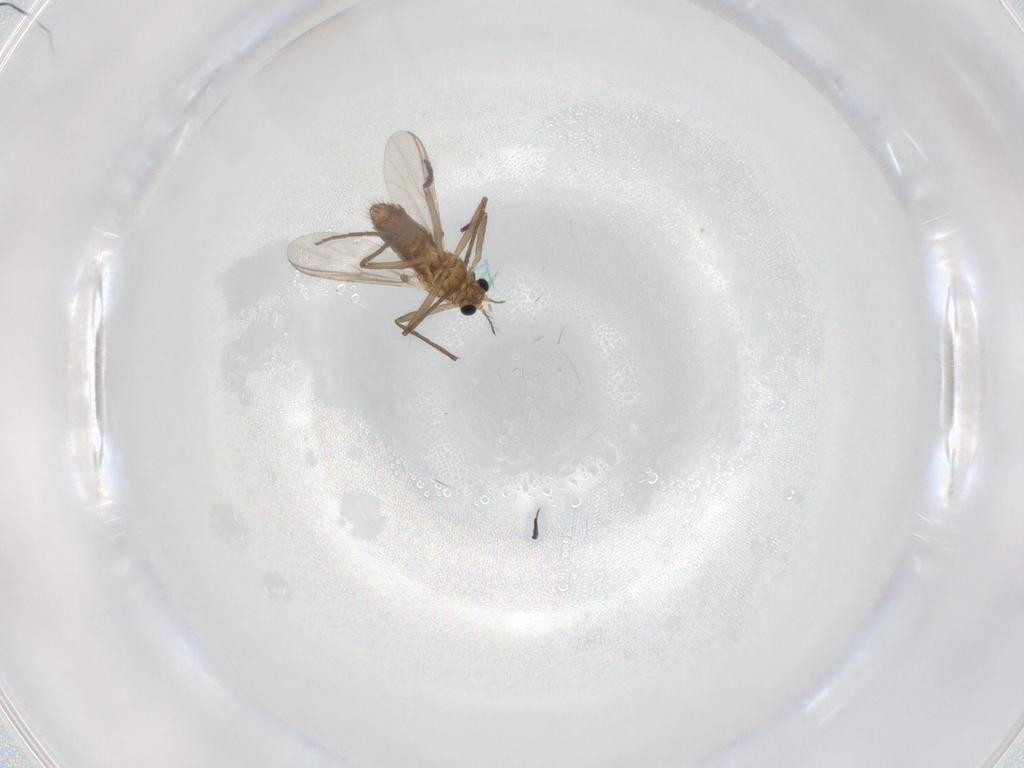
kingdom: Animalia
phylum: Arthropoda
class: Insecta
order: Diptera
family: Chironomidae
